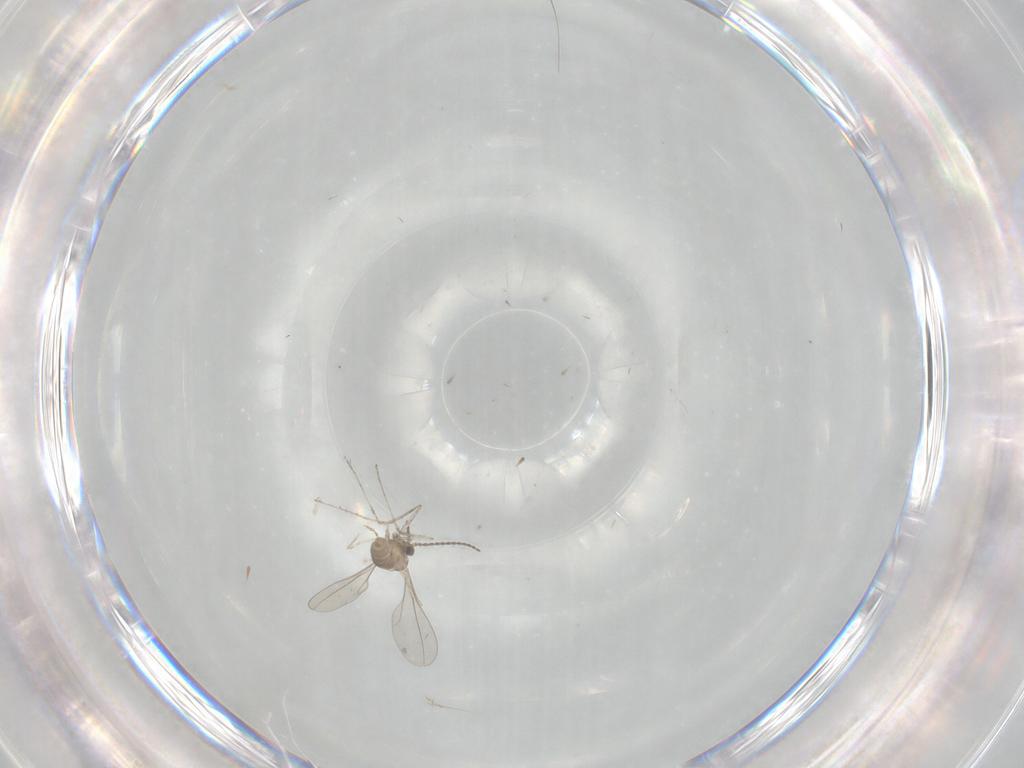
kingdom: Animalia
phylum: Arthropoda
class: Insecta
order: Diptera
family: Cecidomyiidae
